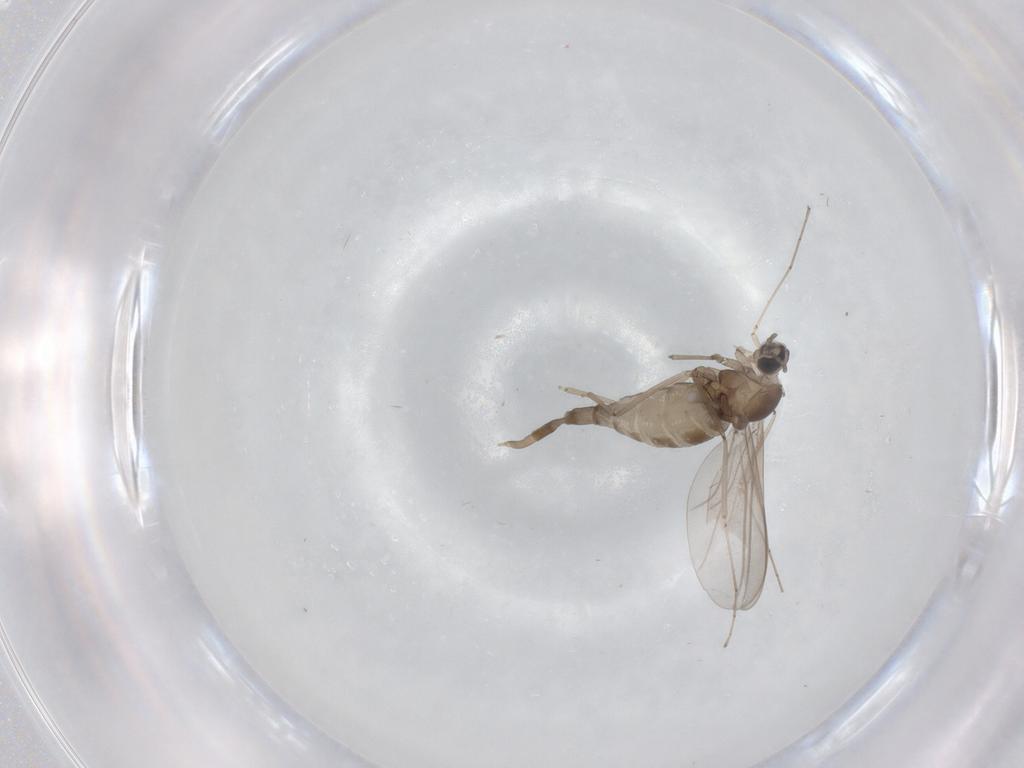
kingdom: Animalia
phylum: Arthropoda
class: Insecta
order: Diptera
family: Cecidomyiidae
